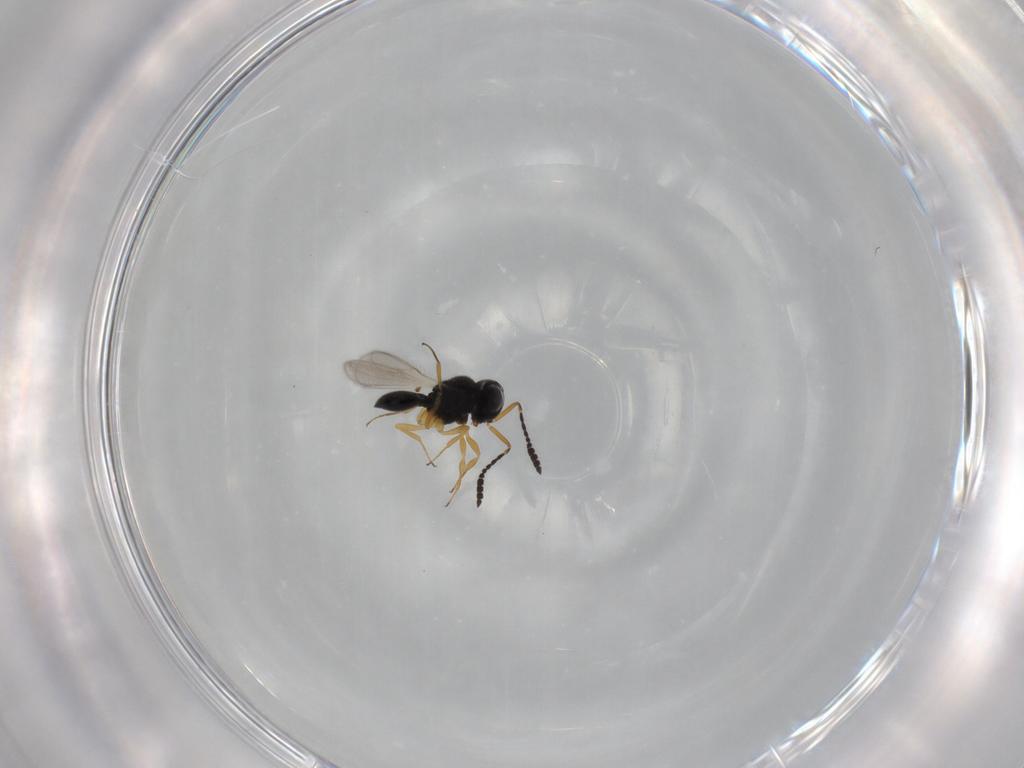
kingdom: Animalia
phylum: Arthropoda
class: Insecta
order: Hymenoptera
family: Scelionidae
